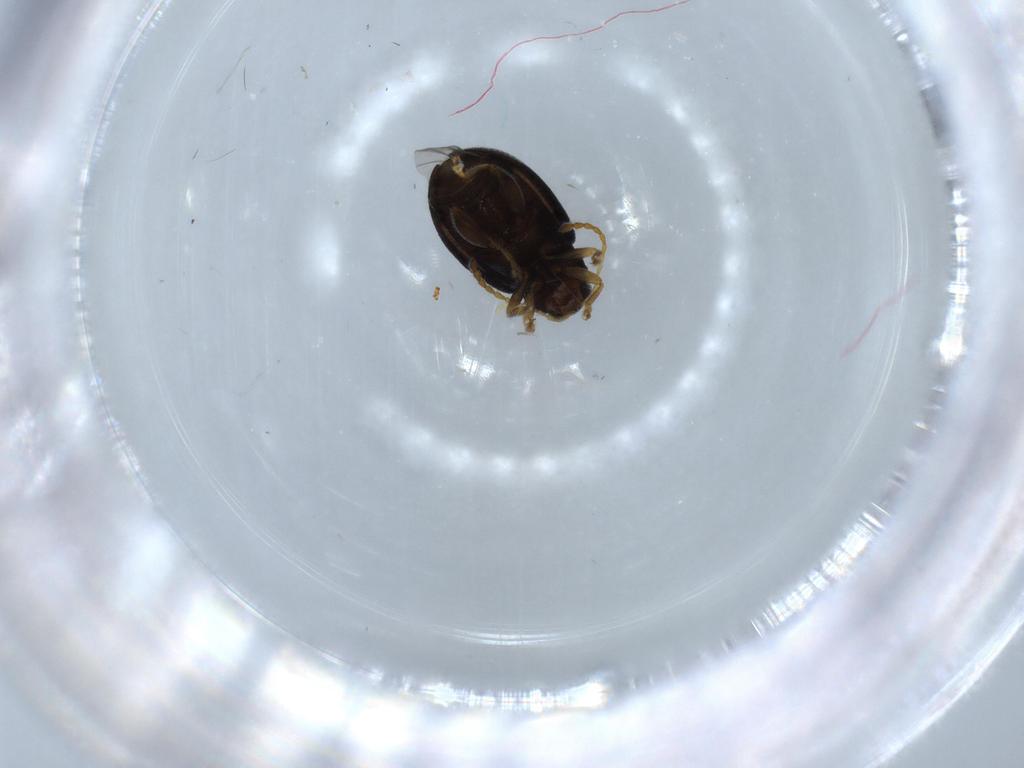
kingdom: Animalia
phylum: Arthropoda
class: Insecta
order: Coleoptera
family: Chrysomelidae
